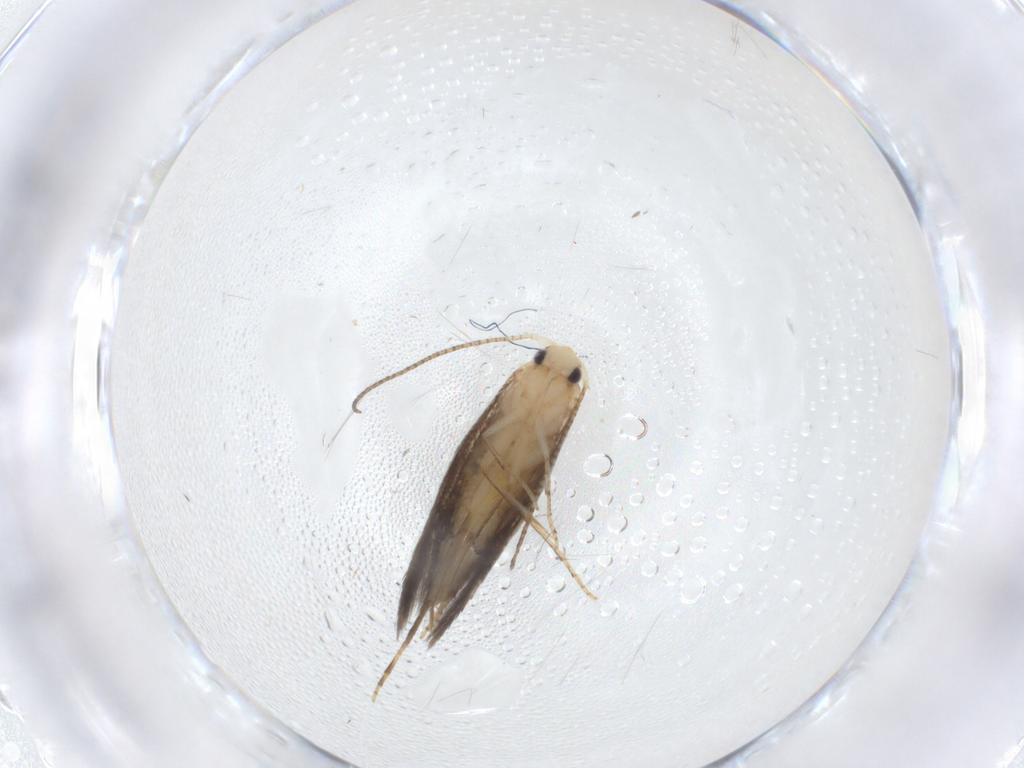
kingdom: Animalia
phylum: Arthropoda
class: Insecta
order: Lepidoptera
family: Bucculatricidae
